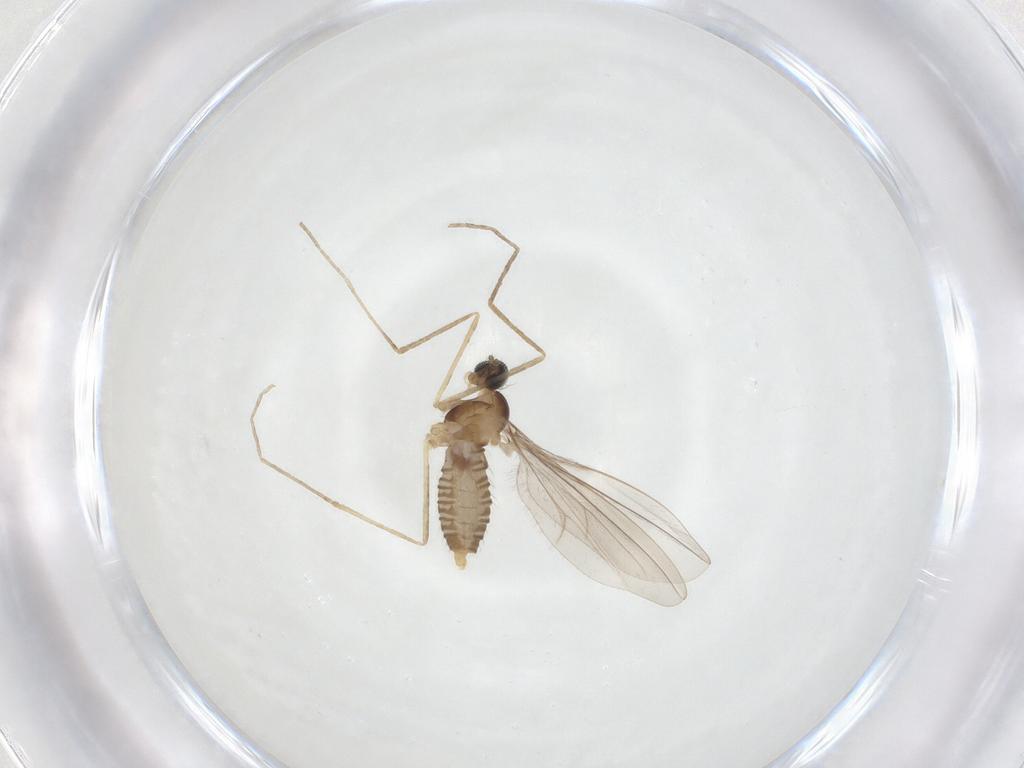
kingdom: Animalia
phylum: Arthropoda
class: Insecta
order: Diptera
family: Cecidomyiidae
